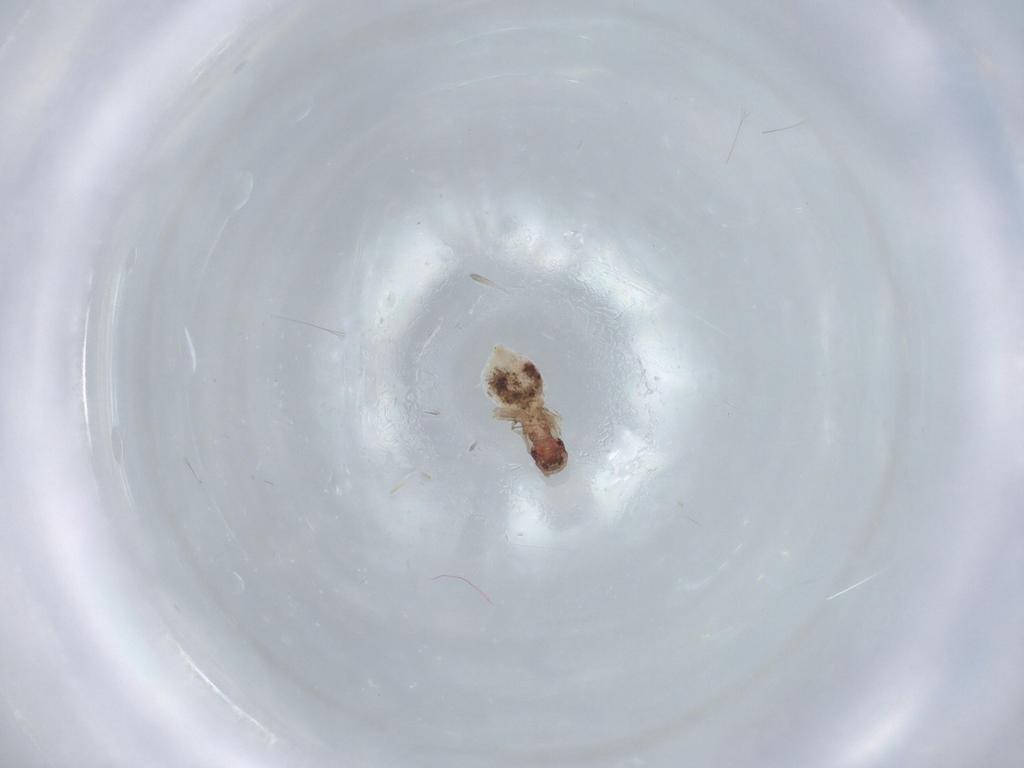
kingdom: Animalia
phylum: Arthropoda
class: Insecta
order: Psocodea
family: Caeciliusidae
